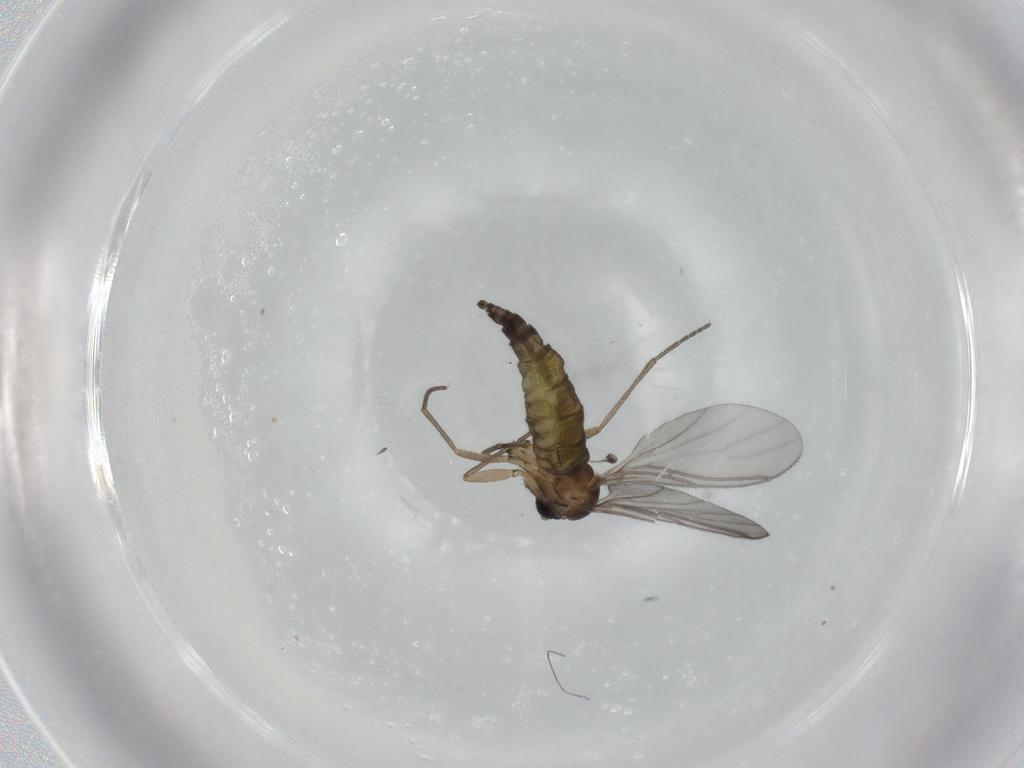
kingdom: Animalia
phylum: Arthropoda
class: Insecta
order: Diptera
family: Sciaridae
